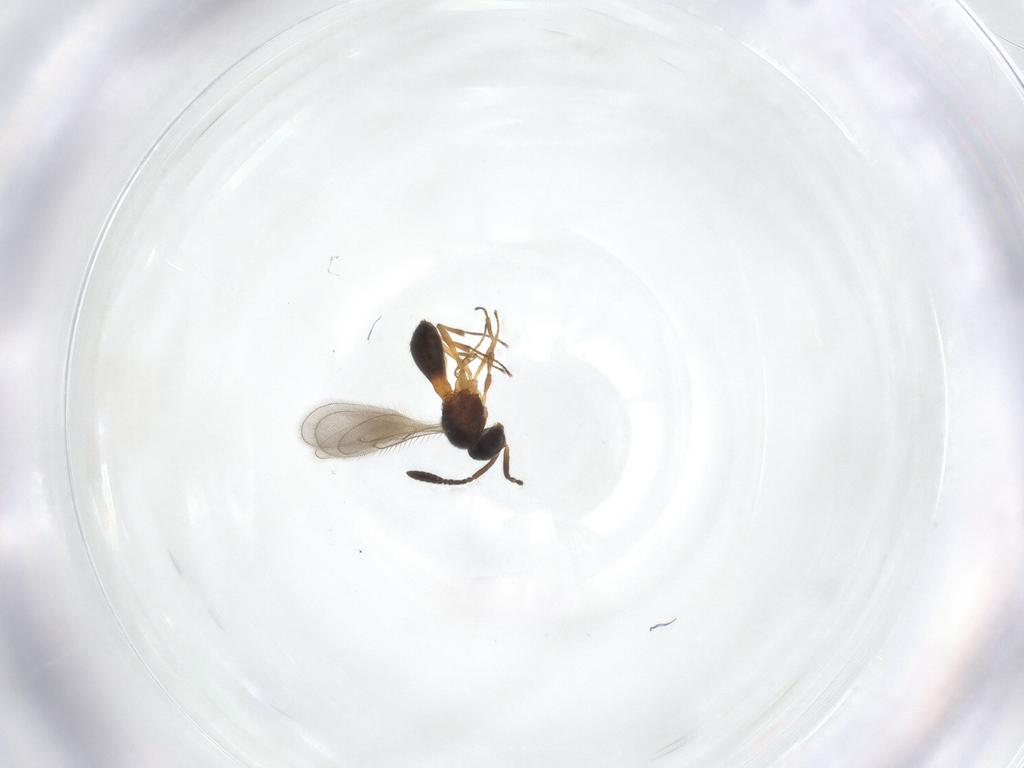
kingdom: Animalia
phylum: Arthropoda
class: Insecta
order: Hymenoptera
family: Scelionidae
